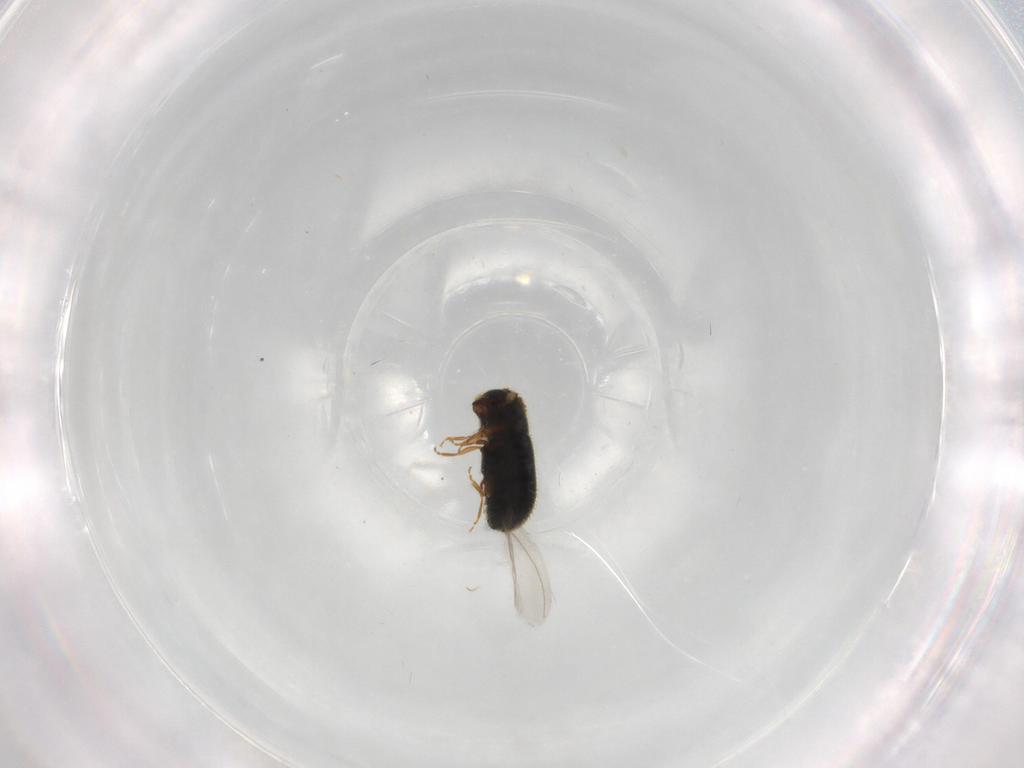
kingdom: Animalia
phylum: Arthropoda
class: Insecta
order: Coleoptera
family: Curculionidae
